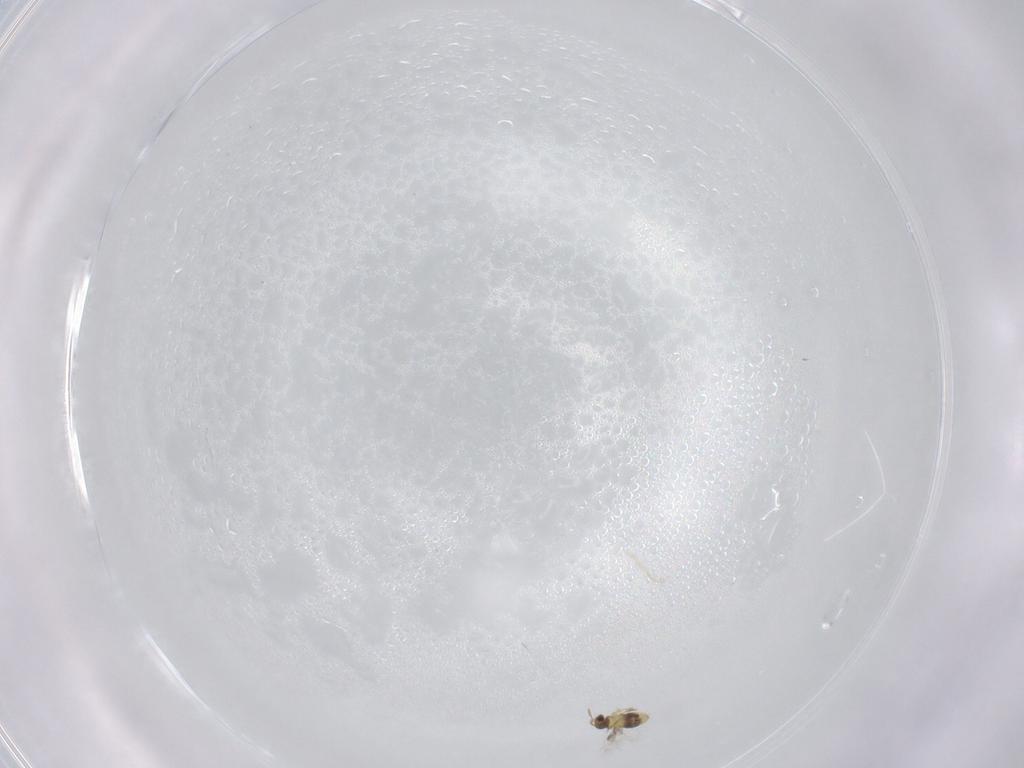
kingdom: Animalia
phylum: Arthropoda
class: Insecta
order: Hymenoptera
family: Signiphoridae
